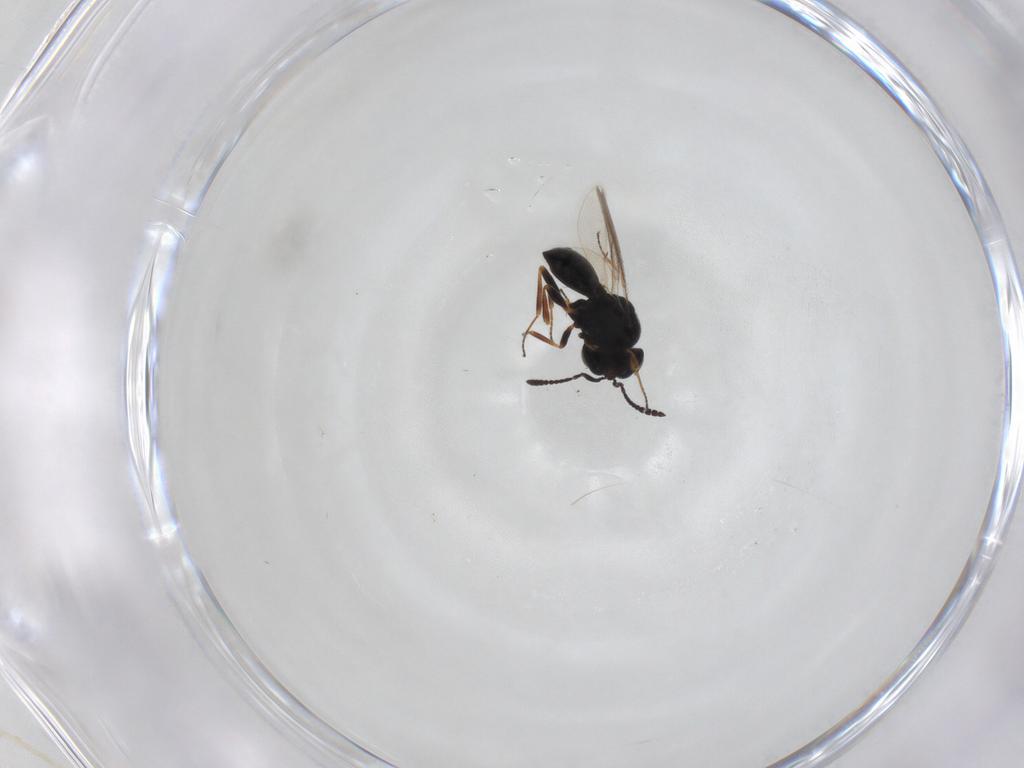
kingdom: Animalia
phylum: Arthropoda
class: Insecta
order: Hymenoptera
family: Scelionidae
